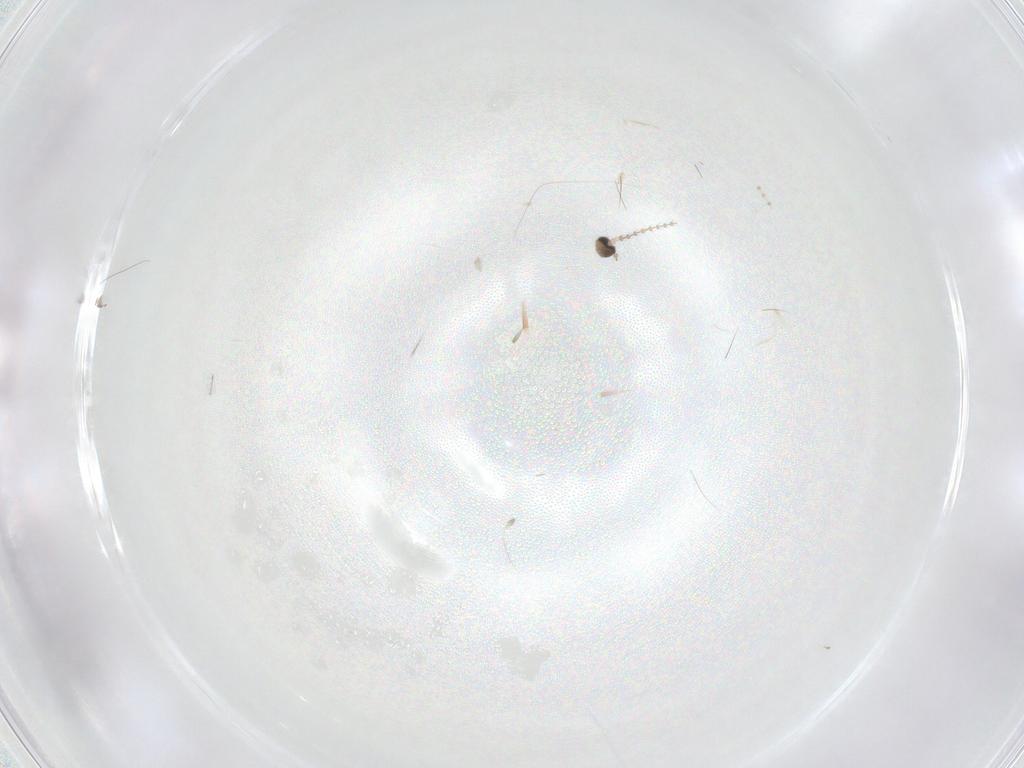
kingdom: Animalia
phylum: Arthropoda
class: Insecta
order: Diptera
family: Cecidomyiidae
